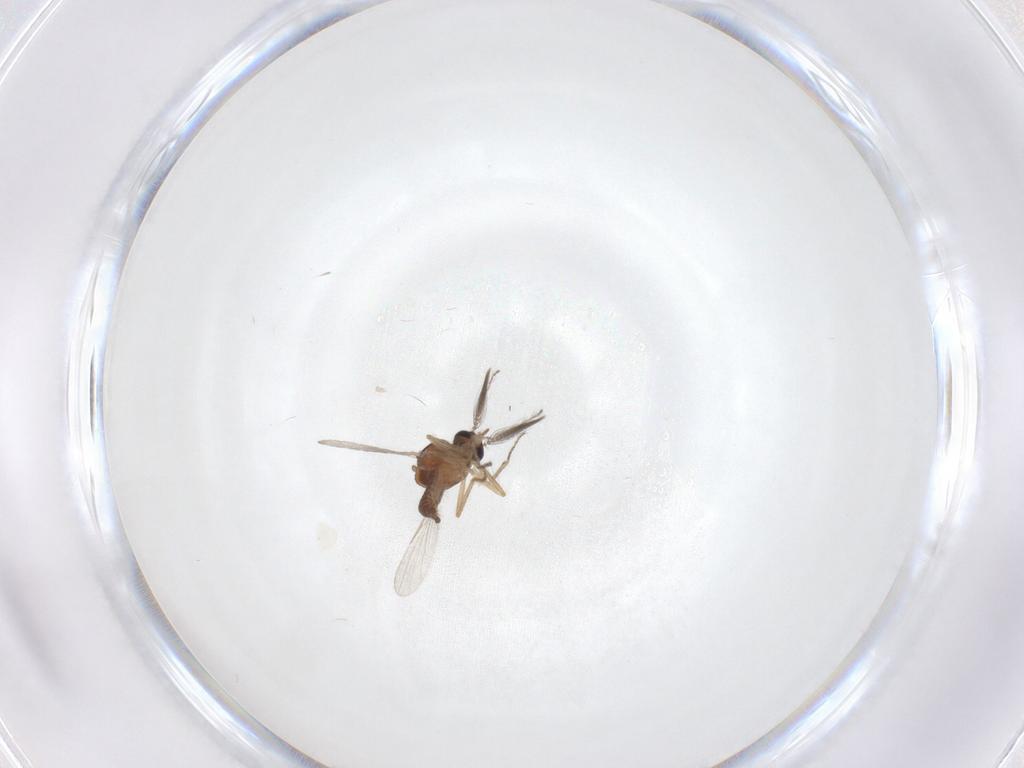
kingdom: Animalia
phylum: Arthropoda
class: Insecta
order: Diptera
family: Ceratopogonidae
